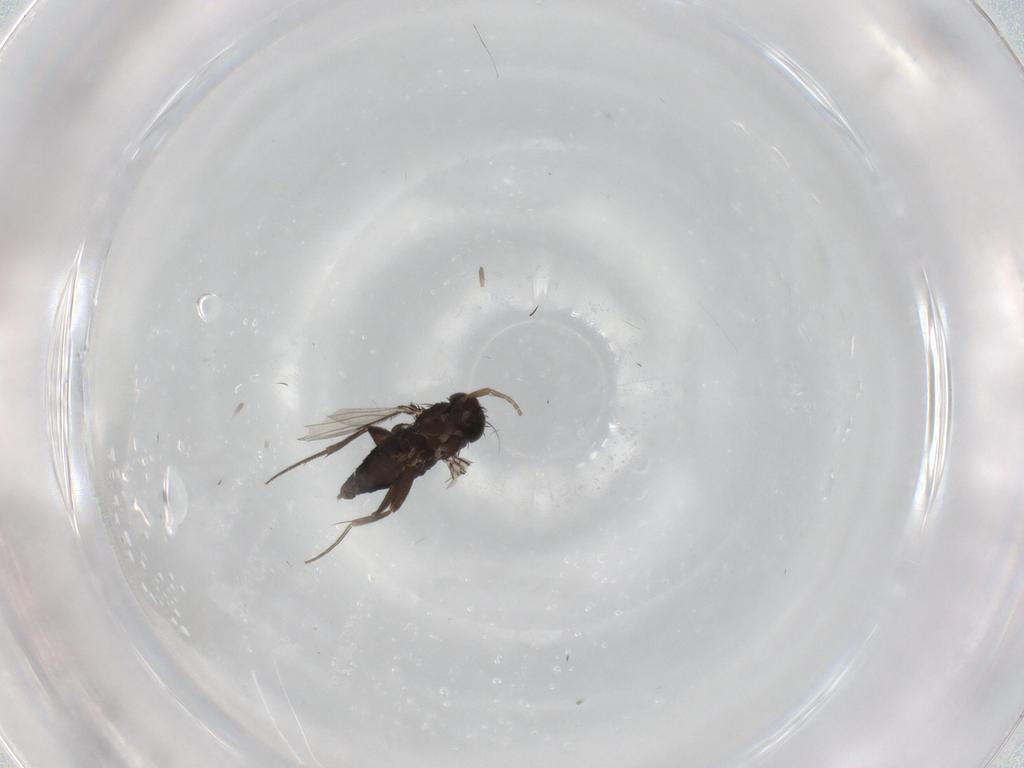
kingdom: Animalia
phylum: Arthropoda
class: Insecta
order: Diptera
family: Phoridae
